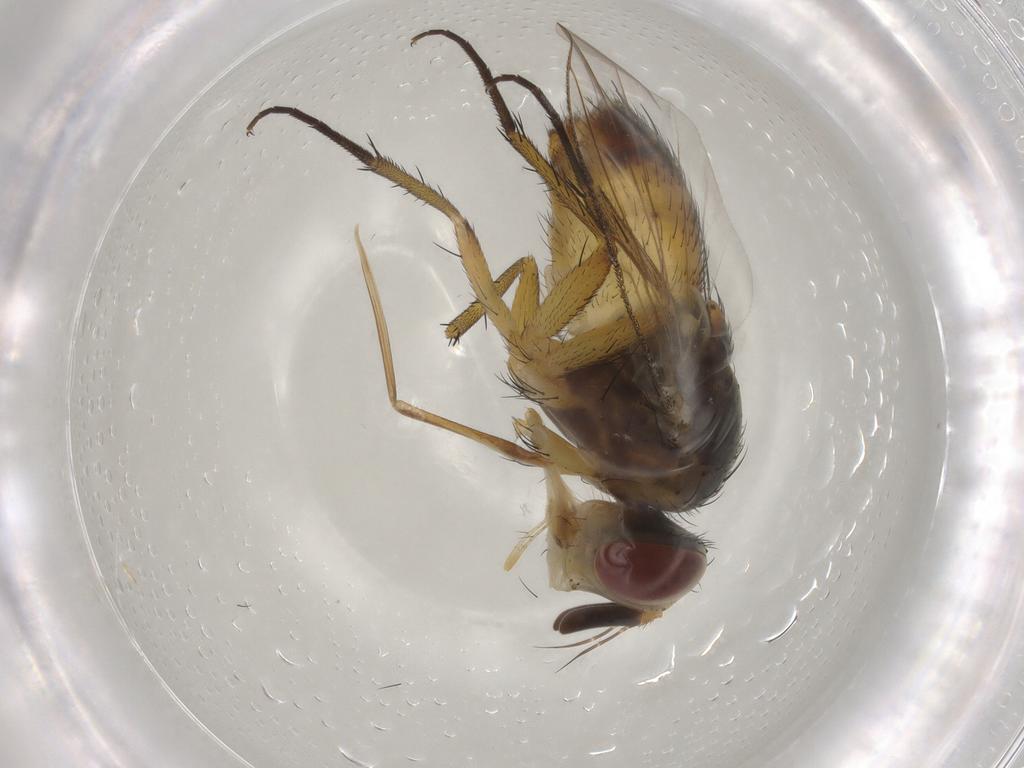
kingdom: Animalia
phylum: Arthropoda
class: Insecta
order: Diptera
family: Tachinidae
